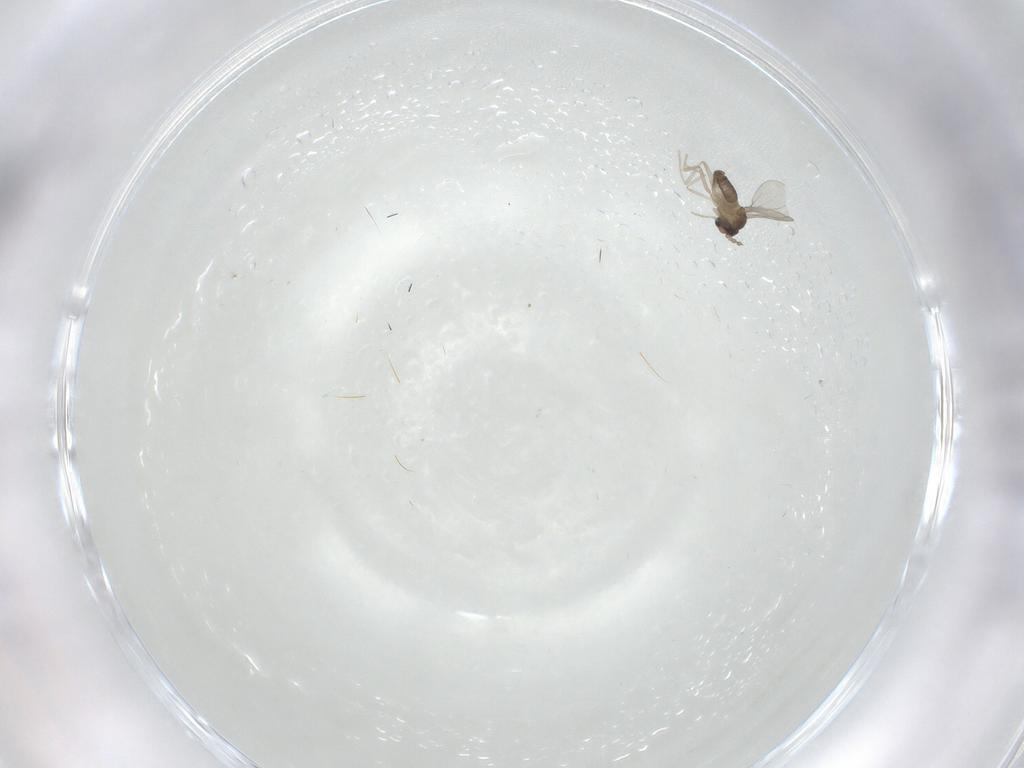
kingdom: Animalia
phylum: Arthropoda
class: Insecta
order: Diptera
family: Cecidomyiidae
